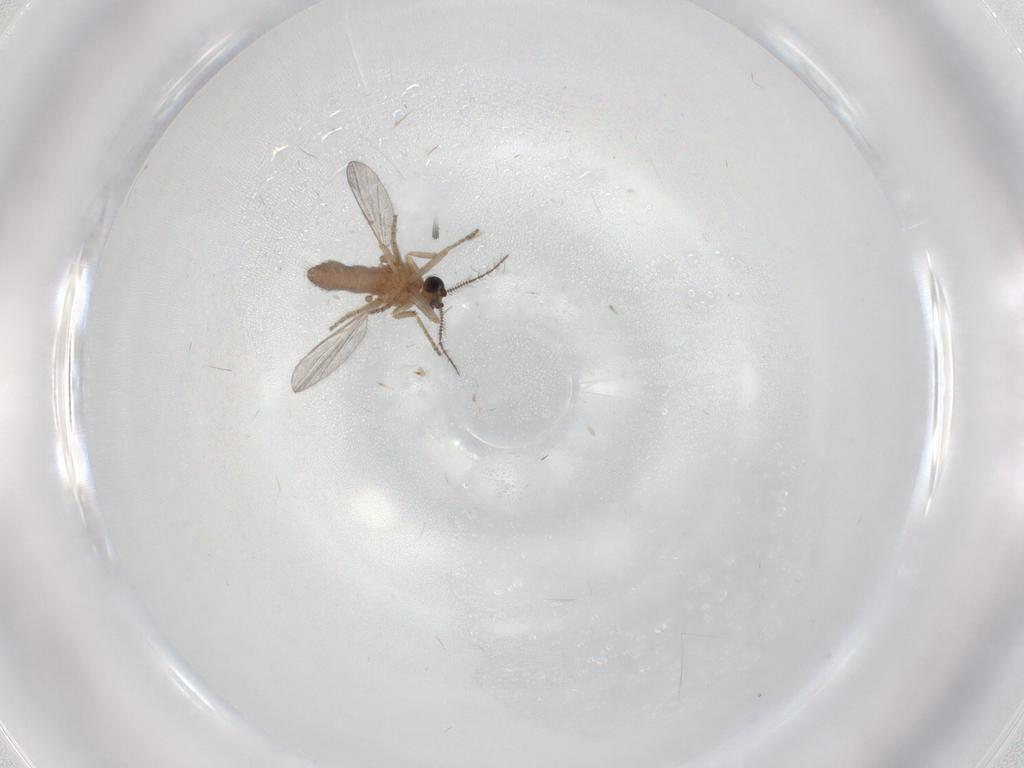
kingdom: Animalia
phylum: Arthropoda
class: Insecta
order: Diptera
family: Ceratopogonidae
